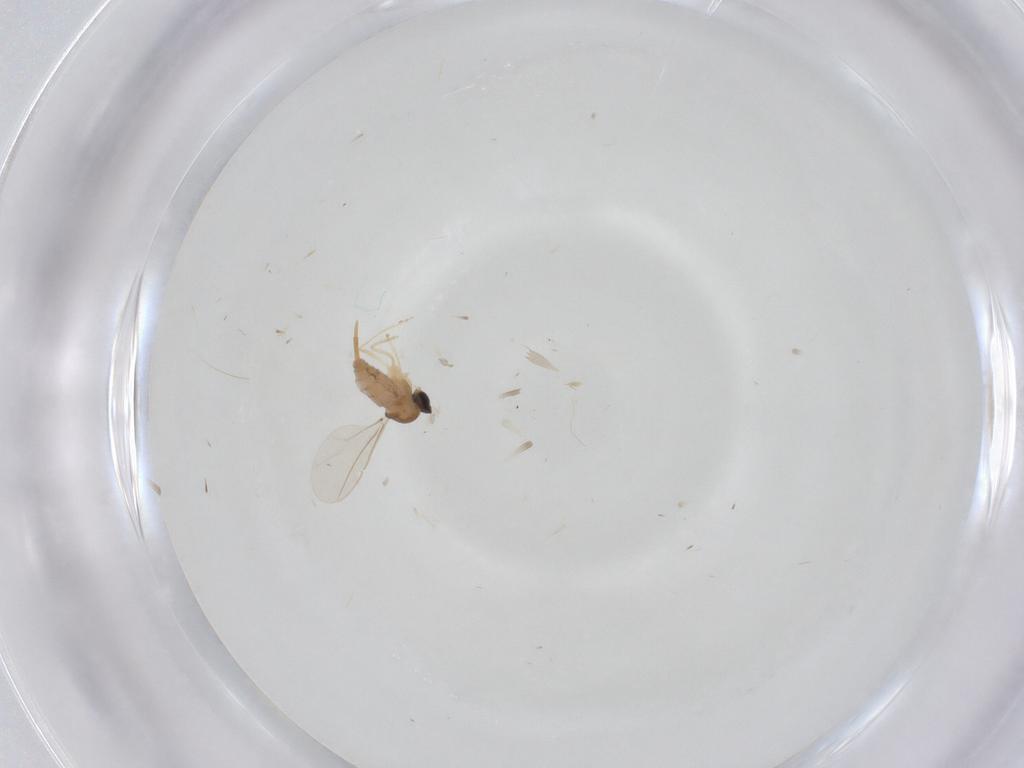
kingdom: Animalia
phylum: Arthropoda
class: Insecta
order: Diptera
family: Cecidomyiidae
